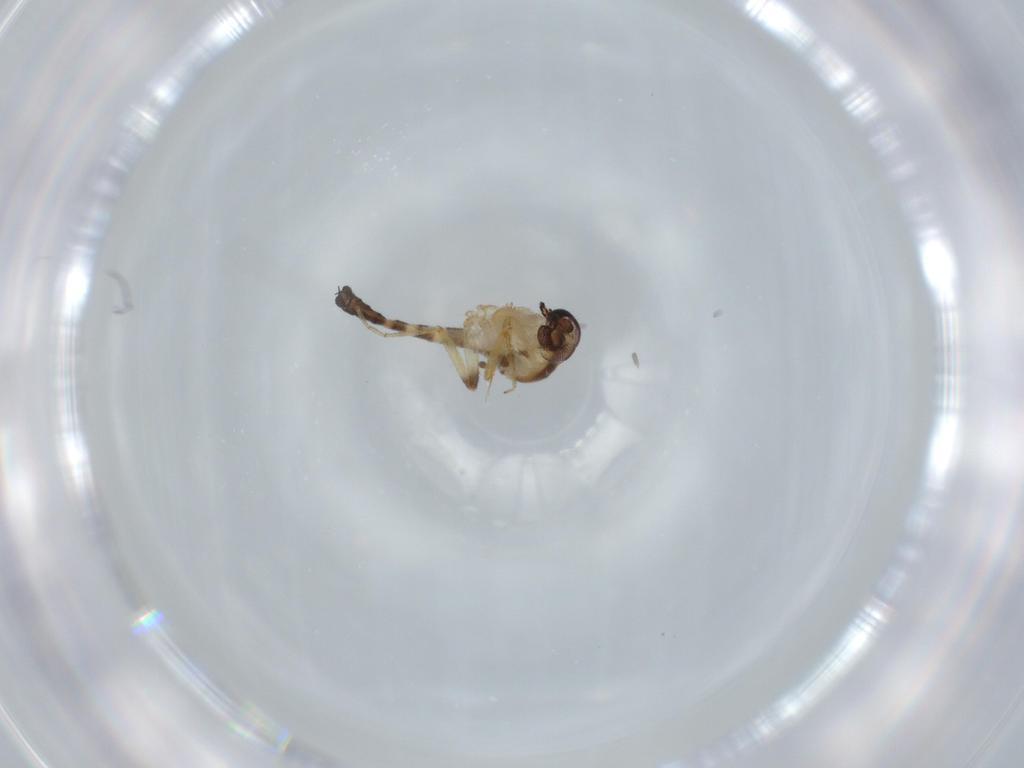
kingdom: Animalia
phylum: Arthropoda
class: Insecta
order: Diptera
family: Ceratopogonidae
